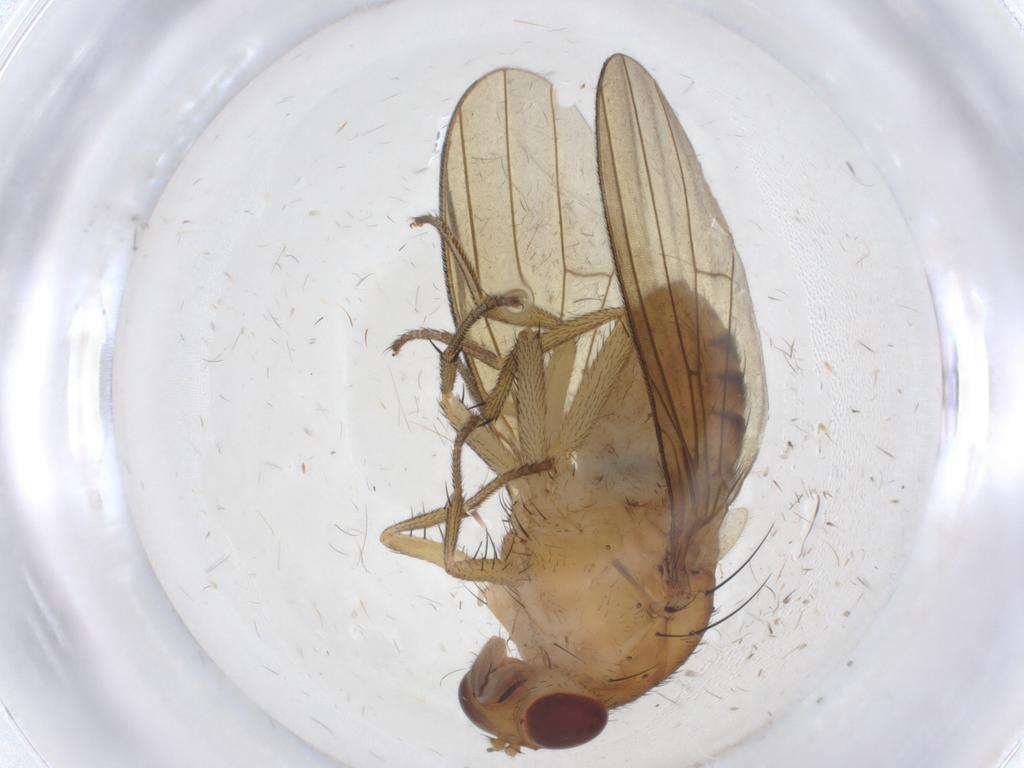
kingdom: Animalia
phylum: Arthropoda
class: Insecta
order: Diptera
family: Sciaridae
